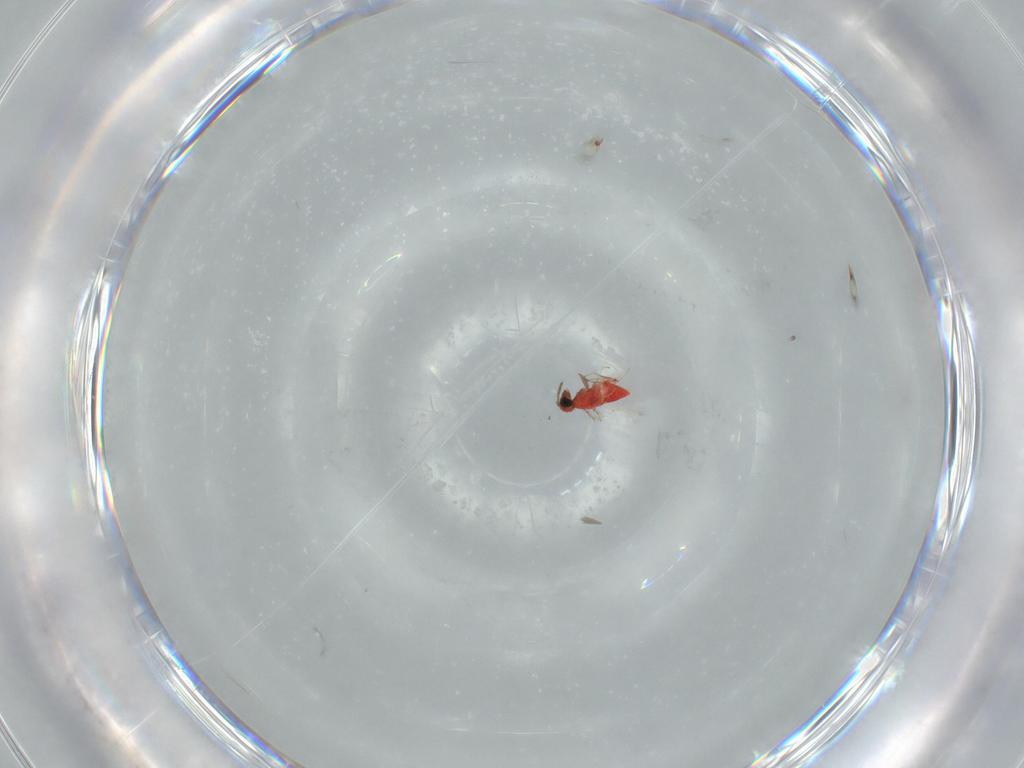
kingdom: Animalia
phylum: Arthropoda
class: Insecta
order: Hymenoptera
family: Trichogrammatidae
